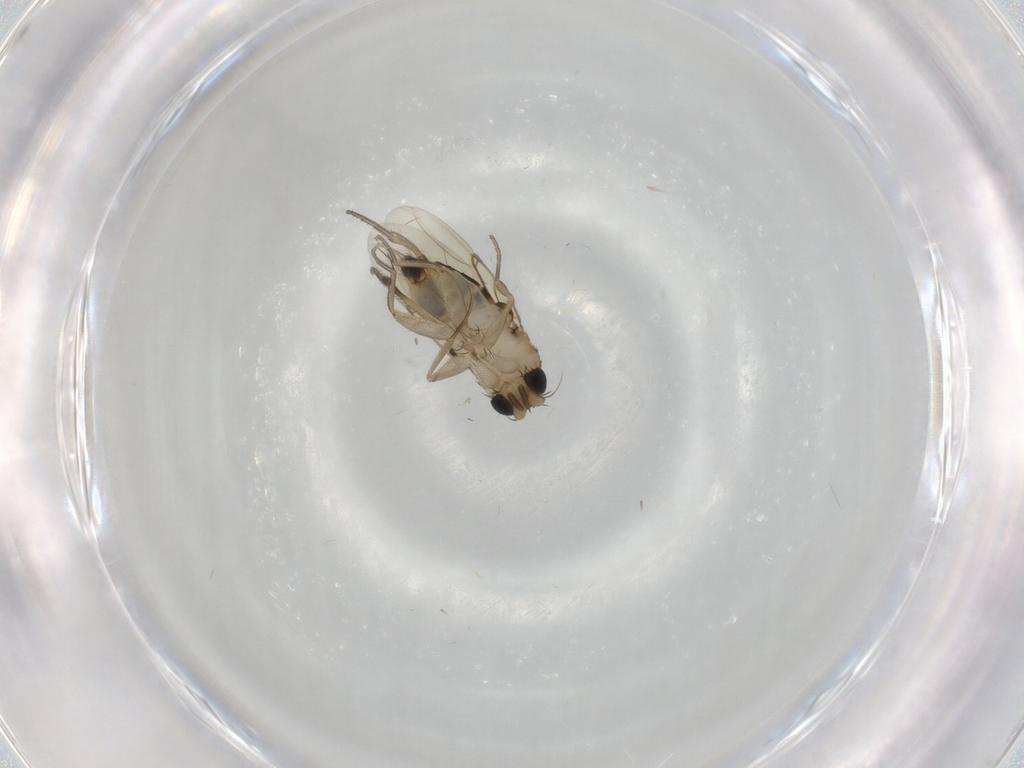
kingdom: Animalia
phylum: Arthropoda
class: Insecta
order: Diptera
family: Phoridae
